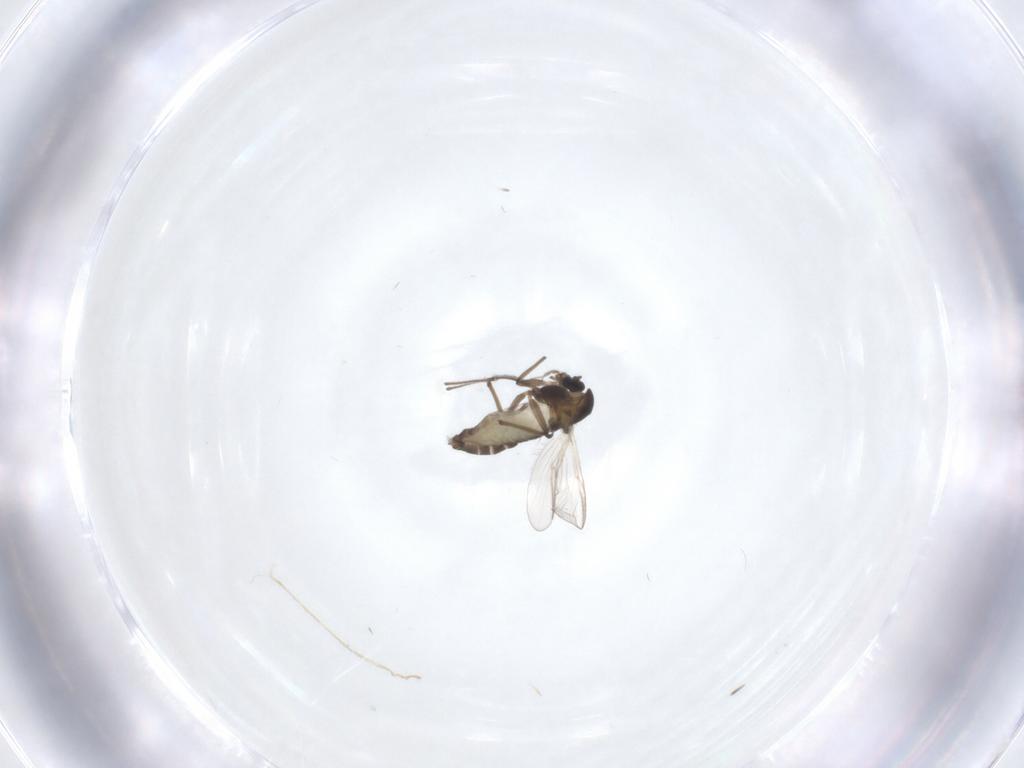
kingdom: Animalia
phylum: Arthropoda
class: Insecta
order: Diptera
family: Chironomidae
